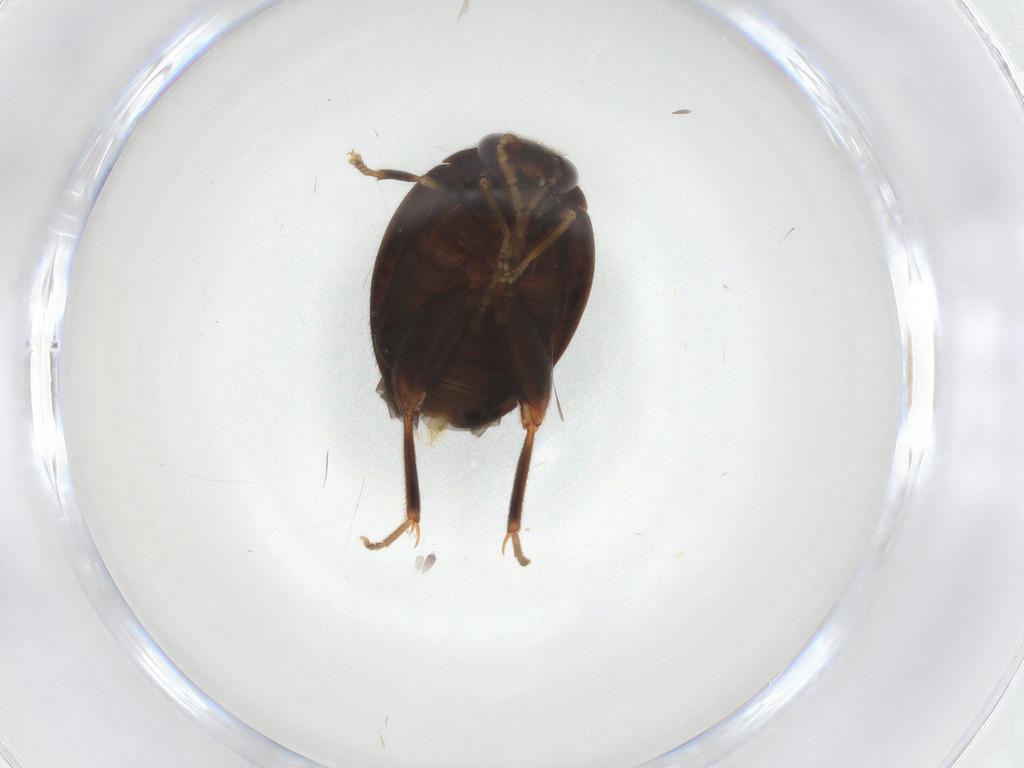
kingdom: Animalia
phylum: Arthropoda
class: Insecta
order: Coleoptera
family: Scirtidae
